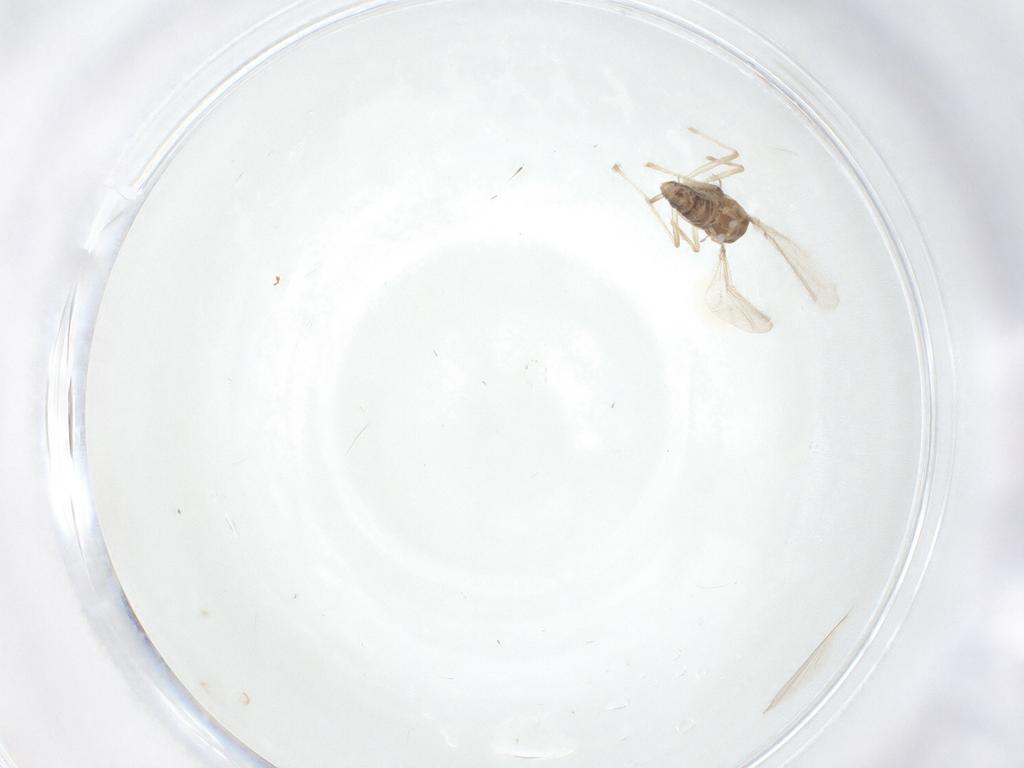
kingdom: Animalia
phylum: Arthropoda
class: Insecta
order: Diptera
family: Chironomidae
